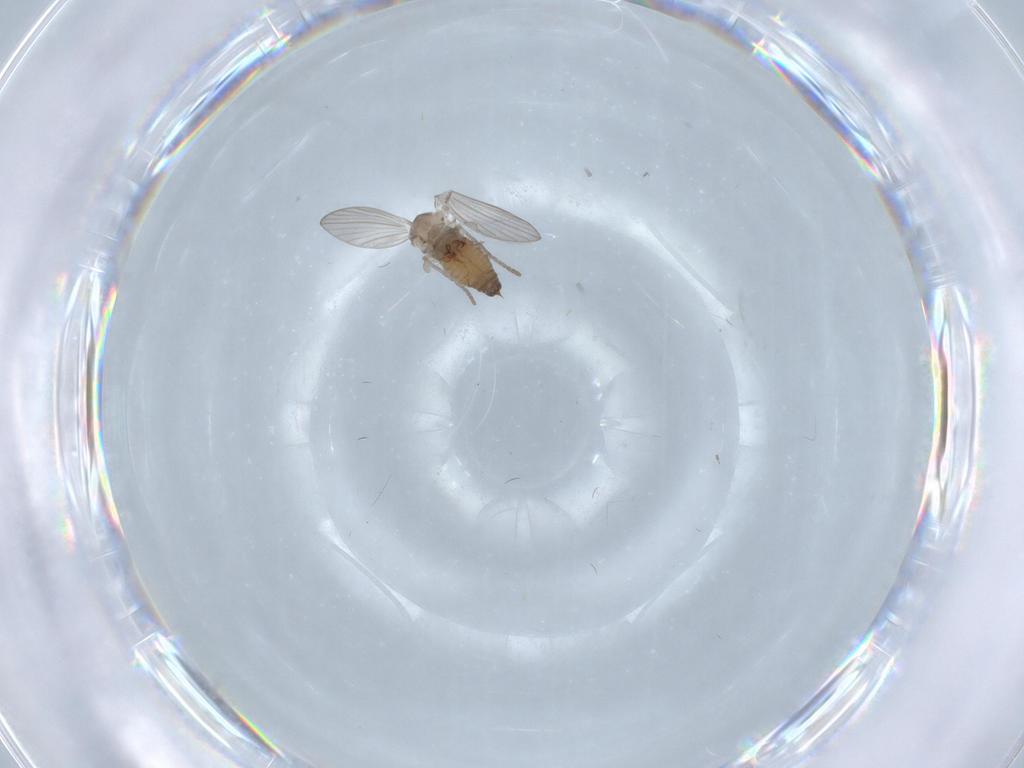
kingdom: Animalia
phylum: Arthropoda
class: Insecta
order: Diptera
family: Psychodidae
